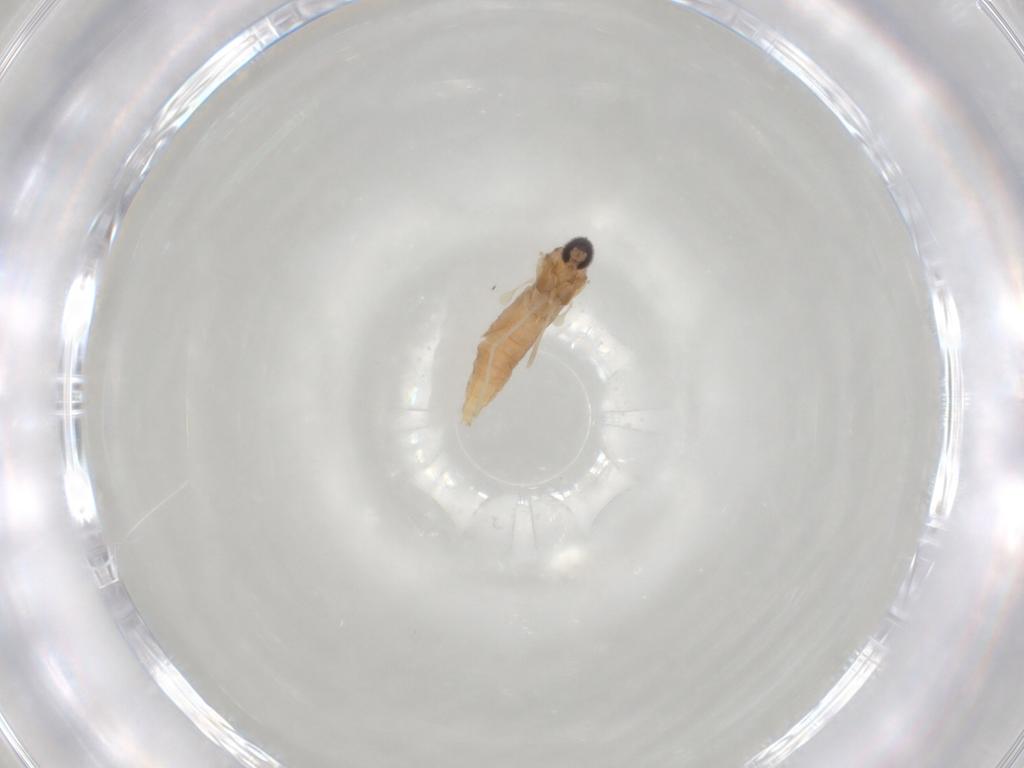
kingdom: Animalia
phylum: Arthropoda
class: Insecta
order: Diptera
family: Cecidomyiidae
